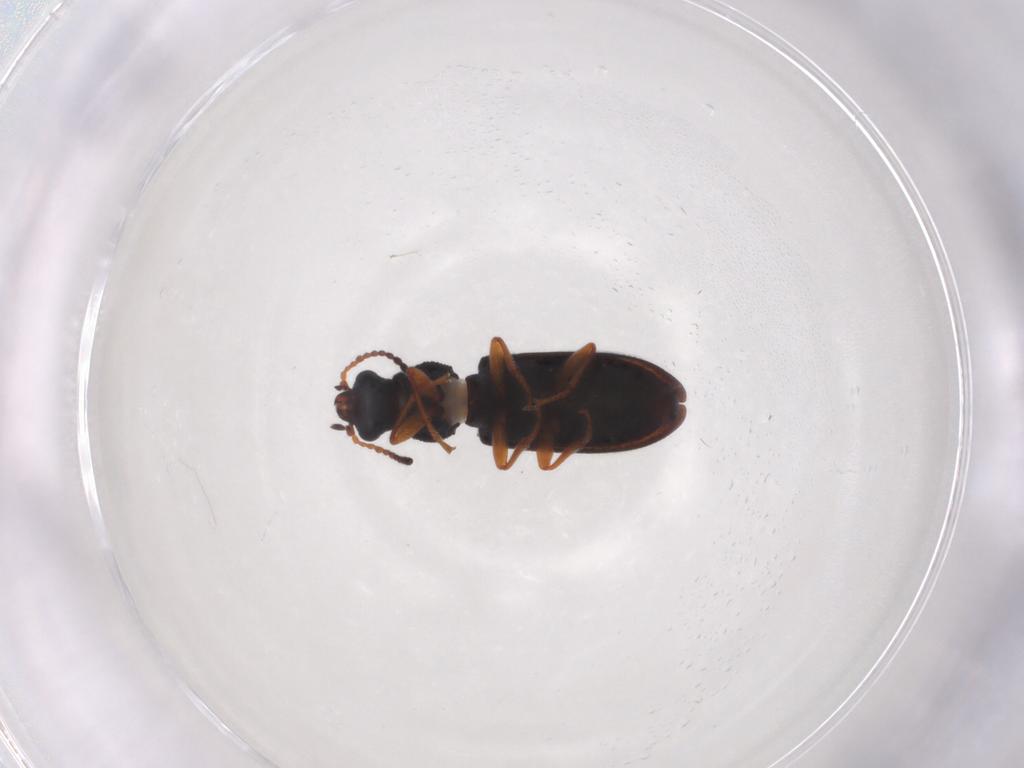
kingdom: Animalia
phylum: Arthropoda
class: Insecta
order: Coleoptera
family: Melyridae
